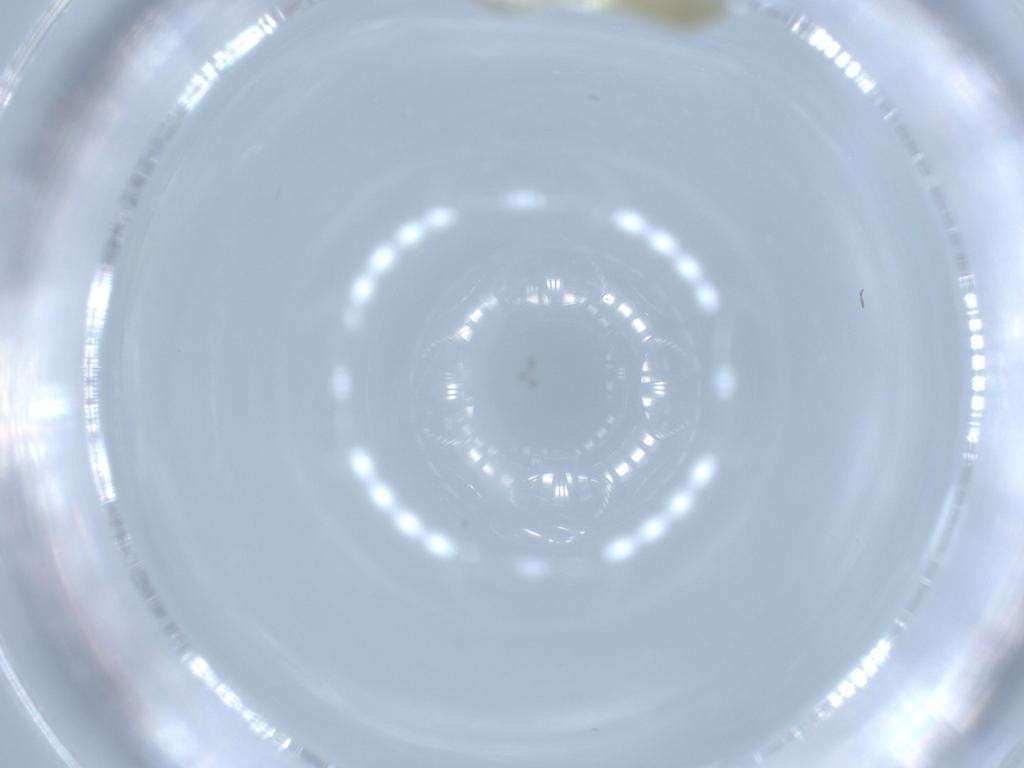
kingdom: Animalia
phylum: Arthropoda
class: Insecta
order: Diptera
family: Chironomidae
